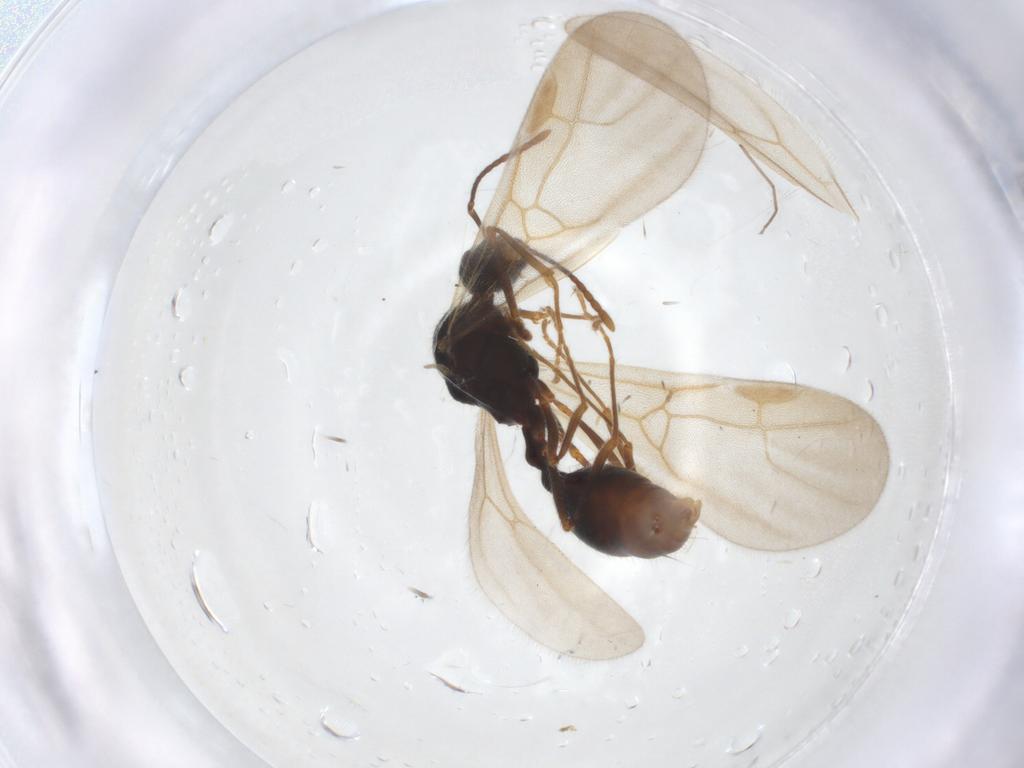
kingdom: Animalia
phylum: Arthropoda
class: Insecta
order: Hymenoptera
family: Formicidae
